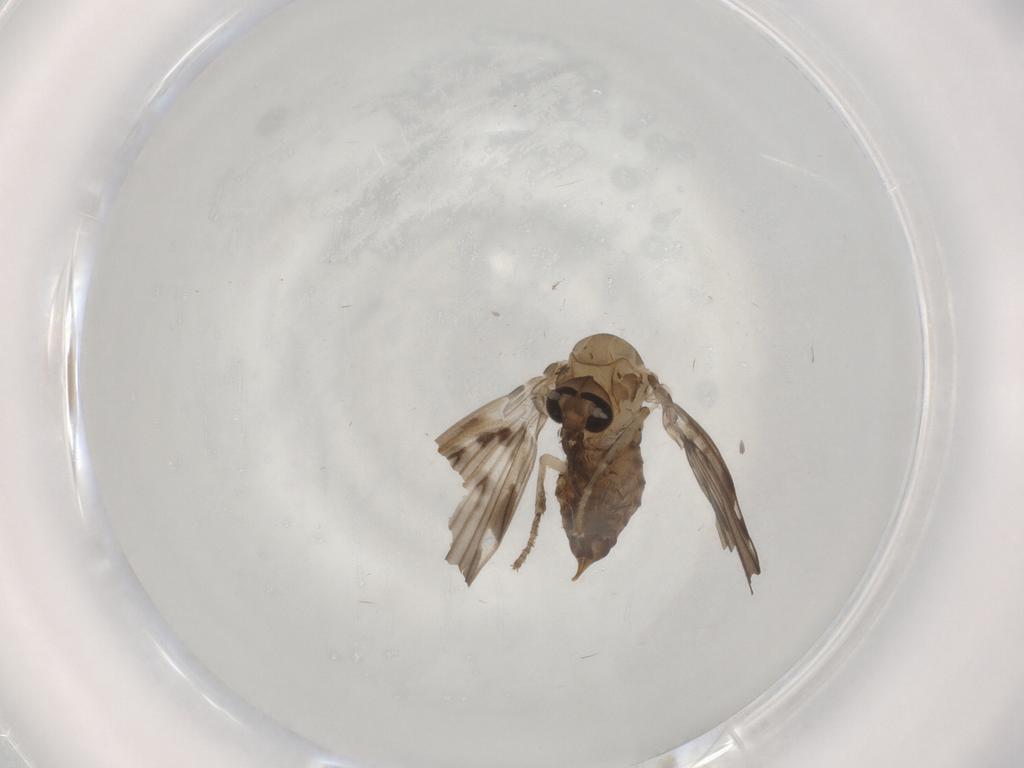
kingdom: Animalia
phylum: Arthropoda
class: Insecta
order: Diptera
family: Psychodidae
